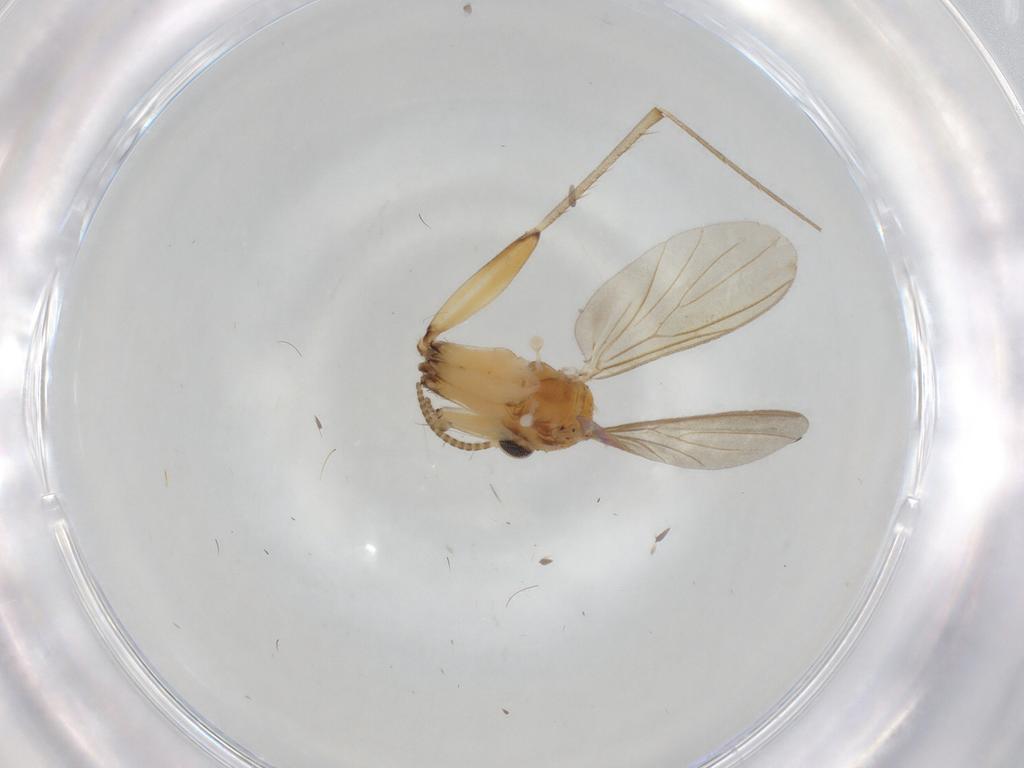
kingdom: Animalia
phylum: Arthropoda
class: Insecta
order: Diptera
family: Mycetophilidae
